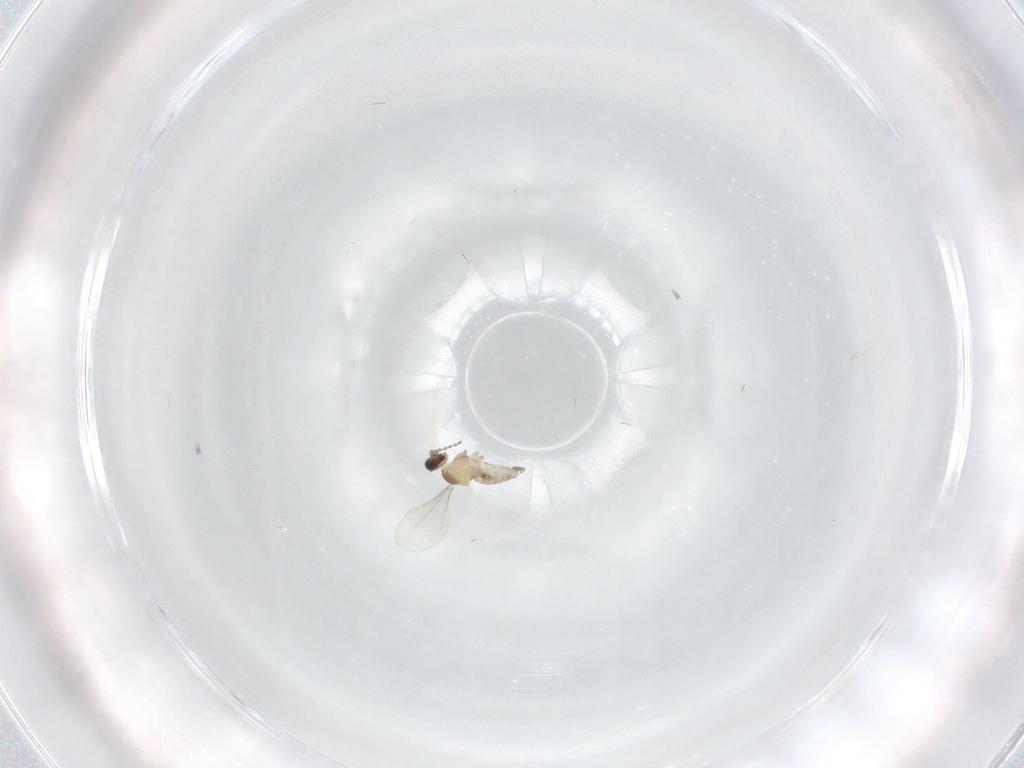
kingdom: Animalia
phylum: Arthropoda
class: Insecta
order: Diptera
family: Cecidomyiidae
